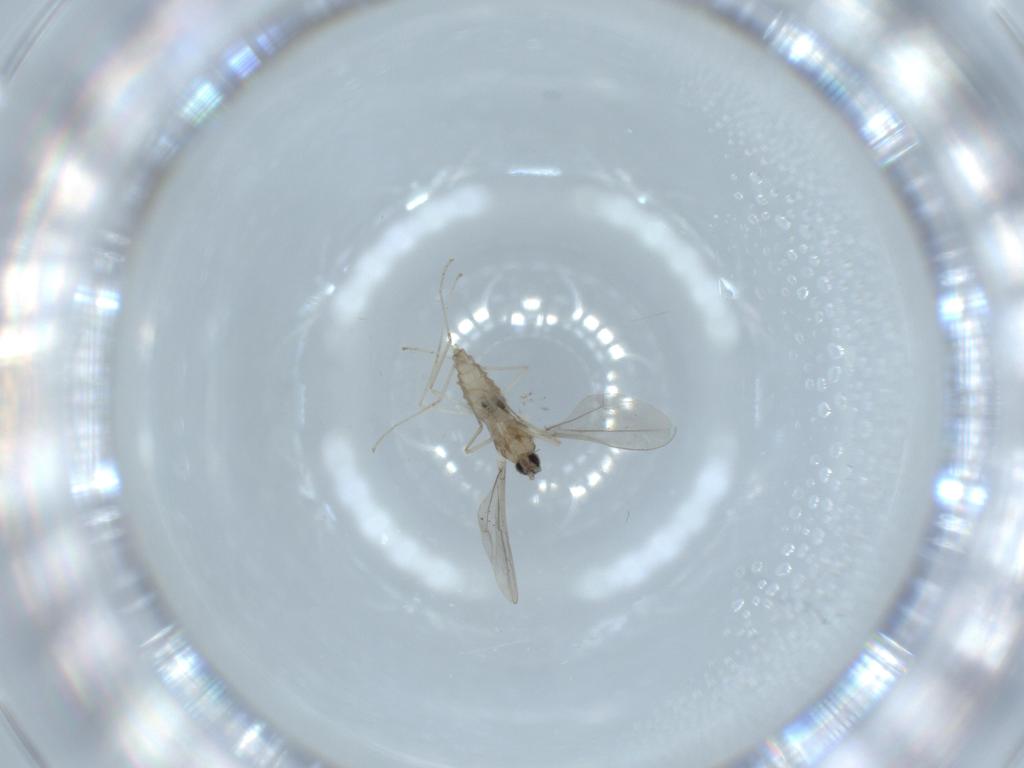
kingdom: Animalia
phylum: Arthropoda
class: Insecta
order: Diptera
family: Cecidomyiidae
